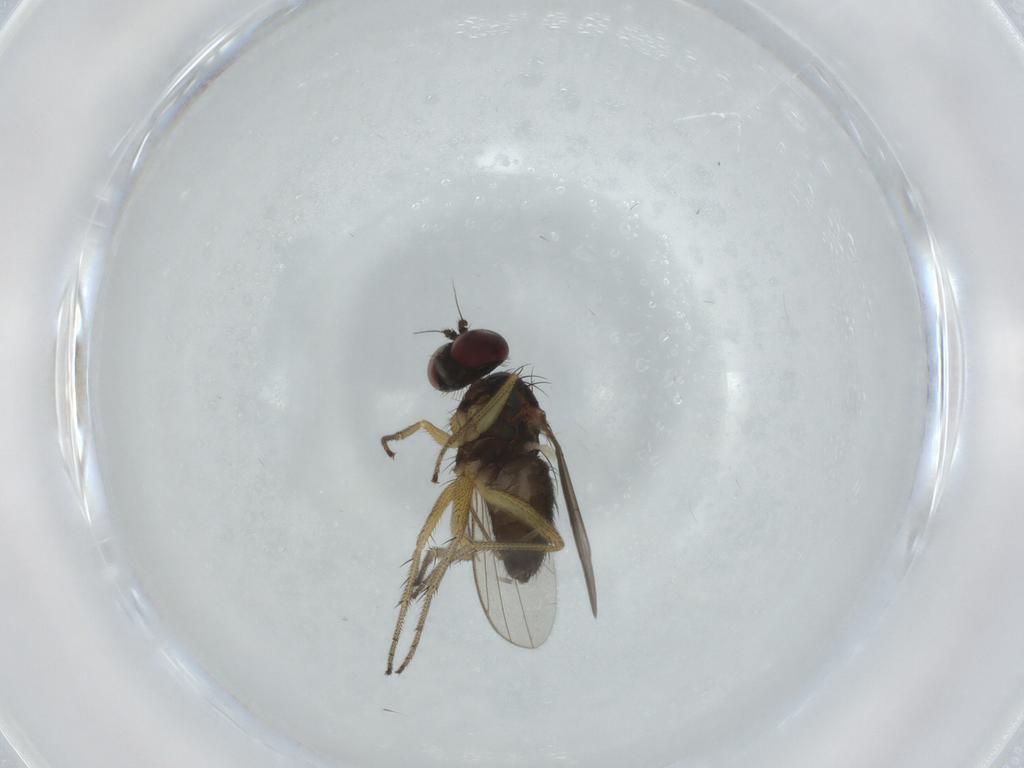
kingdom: Animalia
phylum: Arthropoda
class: Insecta
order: Diptera
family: Dolichopodidae
